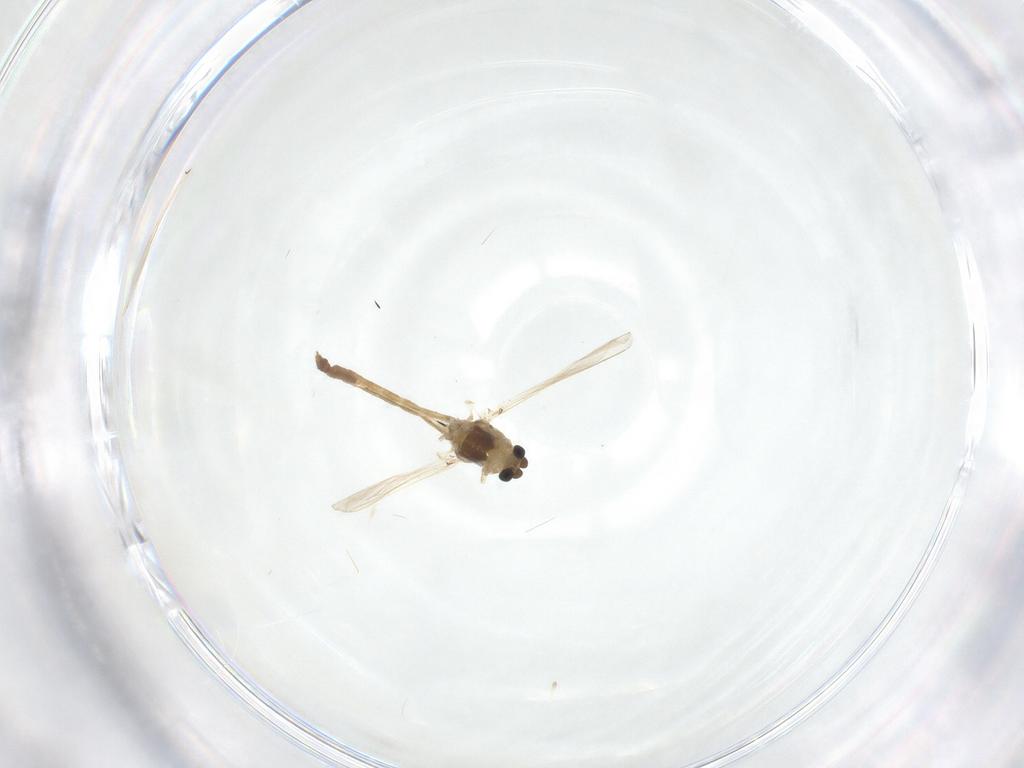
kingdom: Animalia
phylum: Arthropoda
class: Insecta
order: Diptera
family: Chironomidae
